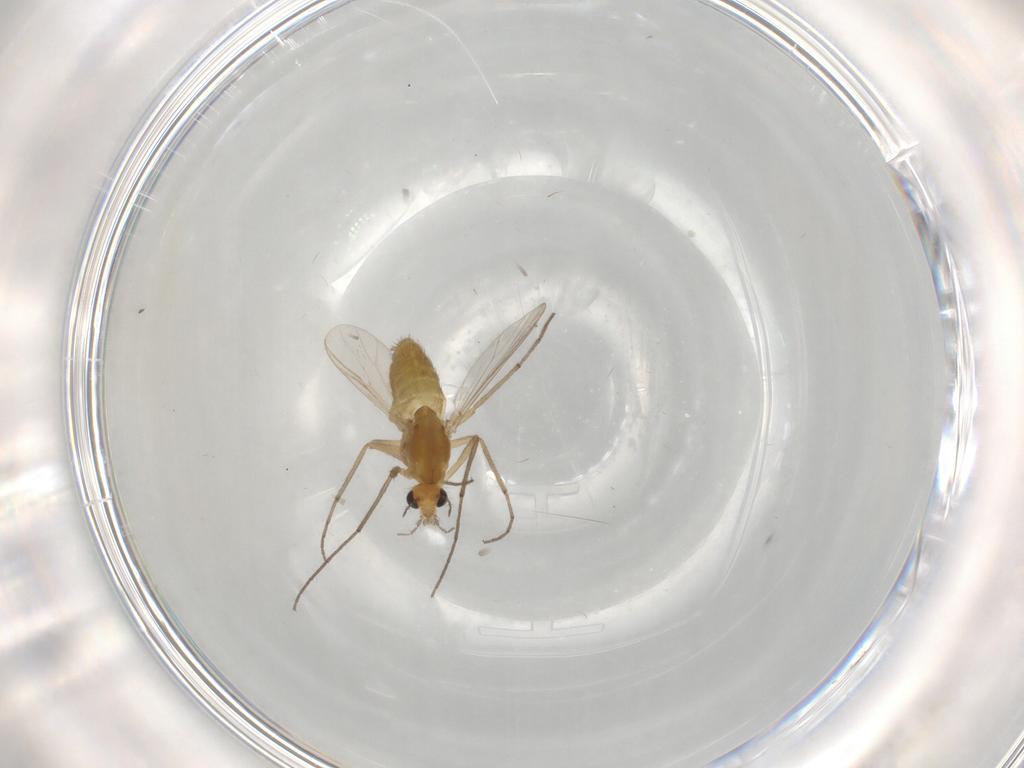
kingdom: Animalia
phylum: Arthropoda
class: Insecta
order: Diptera
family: Chironomidae
